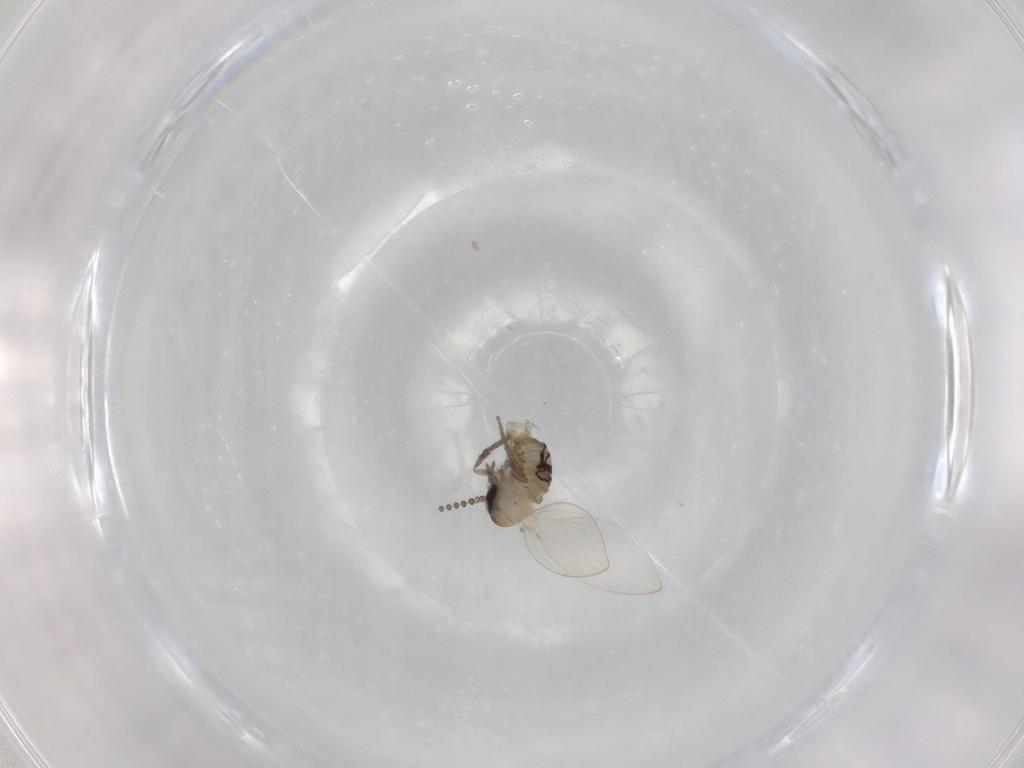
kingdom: Animalia
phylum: Arthropoda
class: Insecta
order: Diptera
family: Psychodidae
